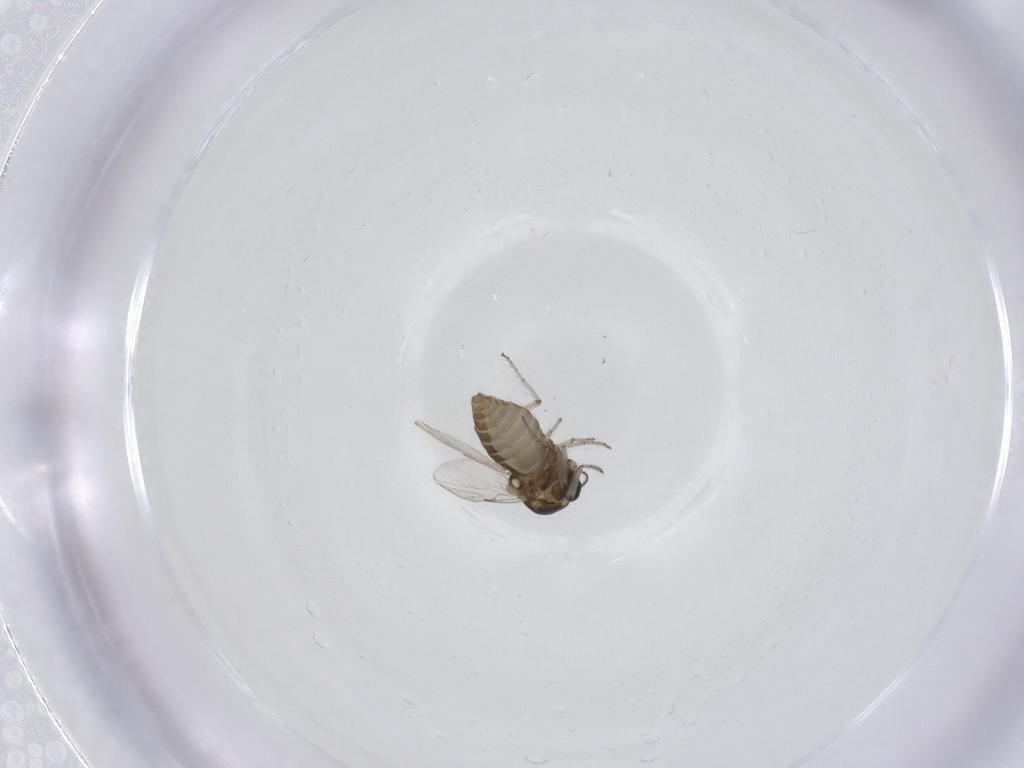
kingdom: Animalia
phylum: Arthropoda
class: Insecta
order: Diptera
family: Ceratopogonidae
